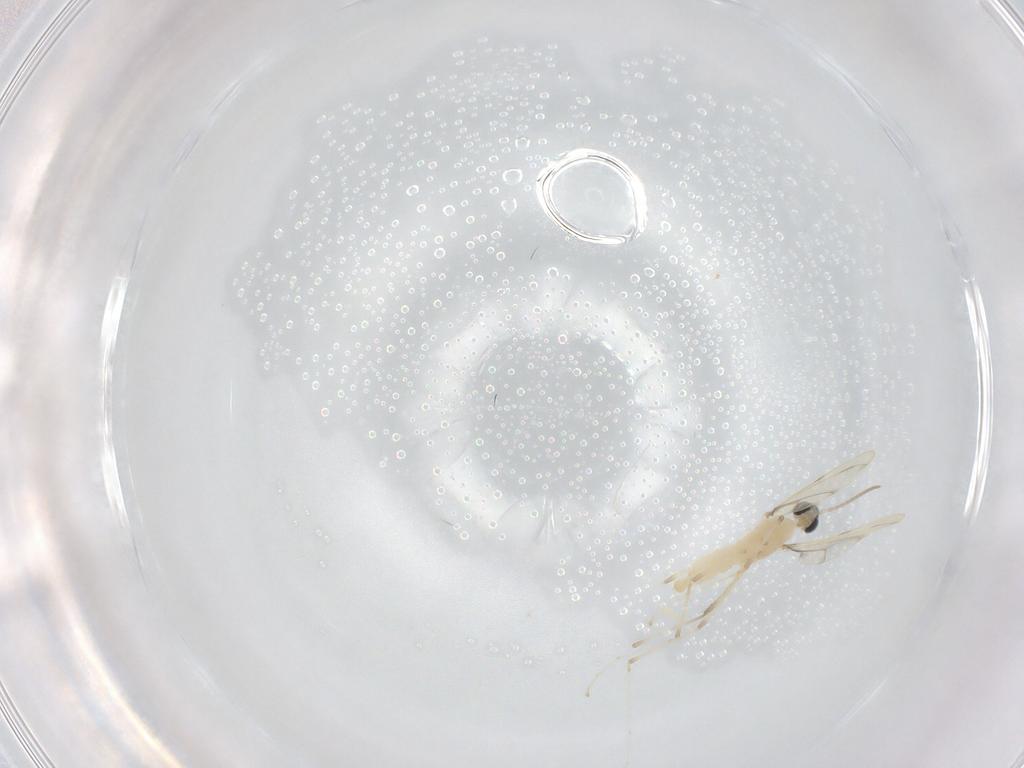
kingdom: Animalia
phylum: Arthropoda
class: Insecta
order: Diptera
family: Cecidomyiidae
